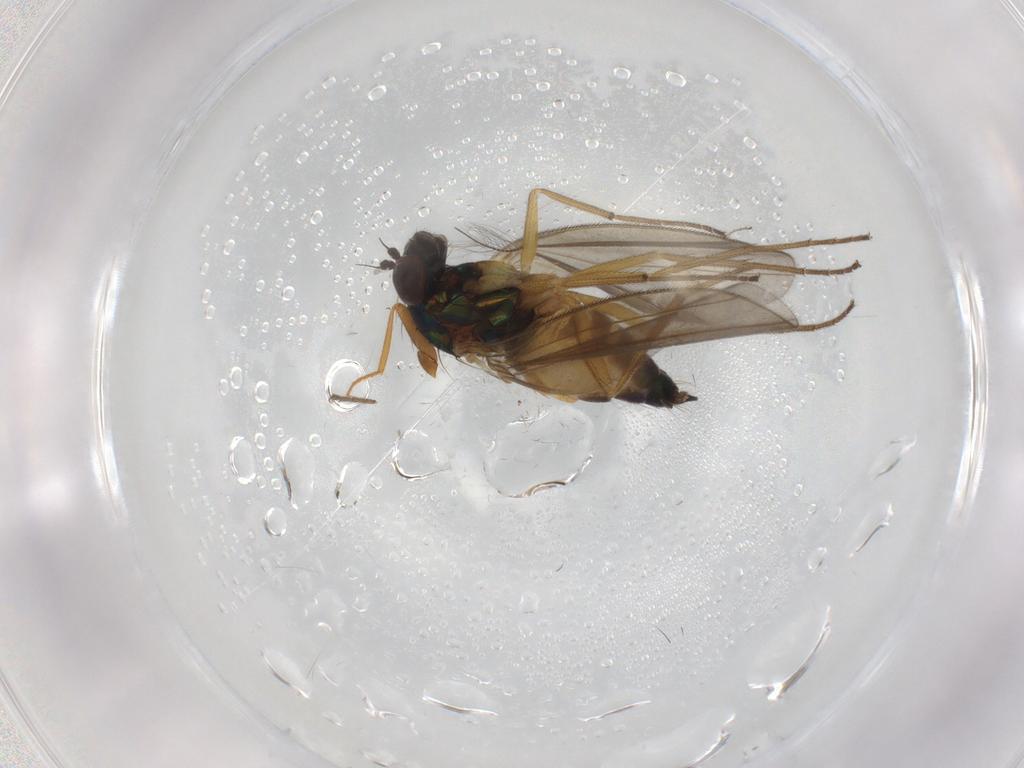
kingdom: Animalia
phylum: Arthropoda
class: Insecta
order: Diptera
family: Dolichopodidae
